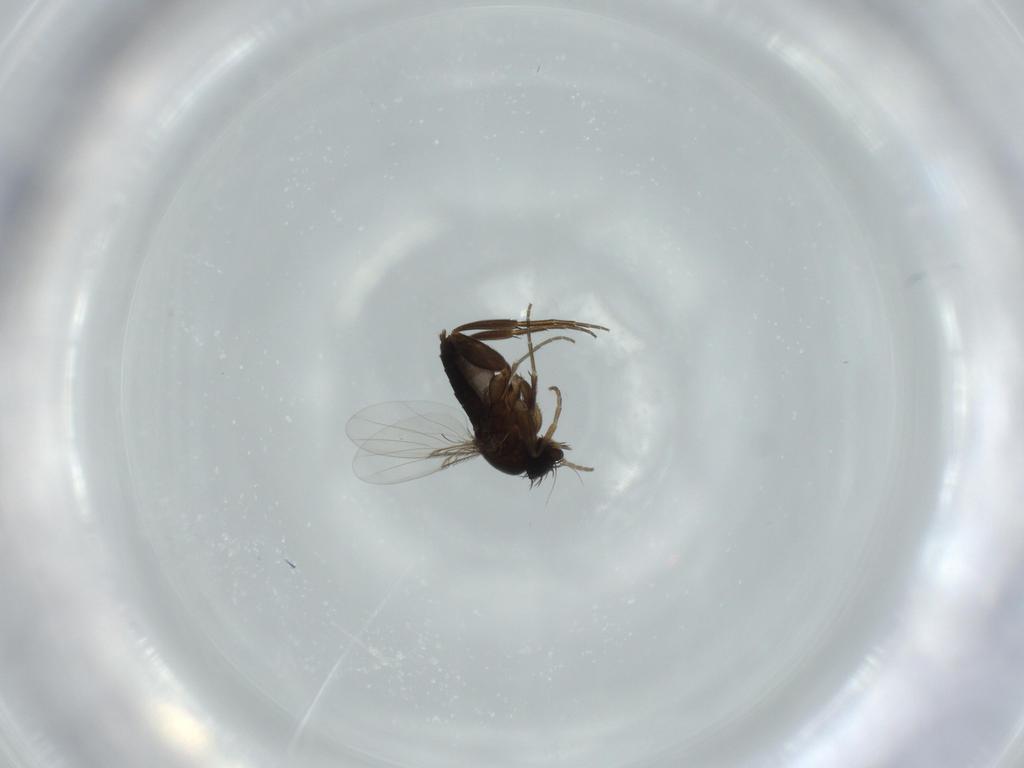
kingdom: Animalia
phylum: Arthropoda
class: Insecta
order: Diptera
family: Phoridae
